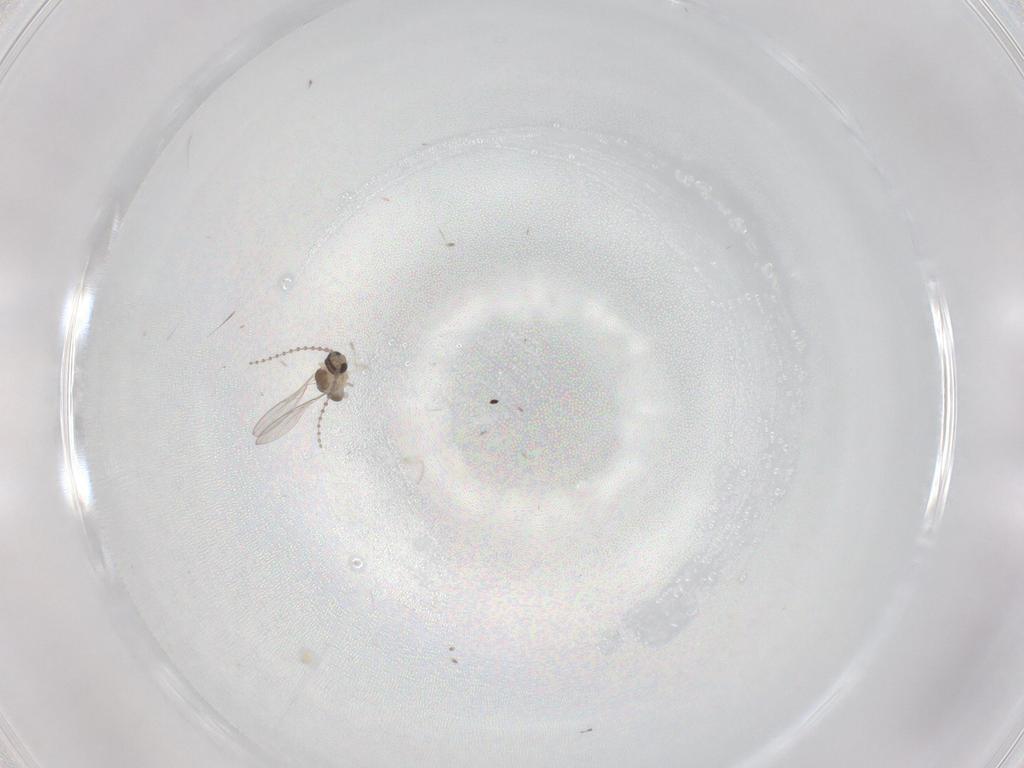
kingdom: Animalia
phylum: Arthropoda
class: Insecta
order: Diptera
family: Cecidomyiidae
